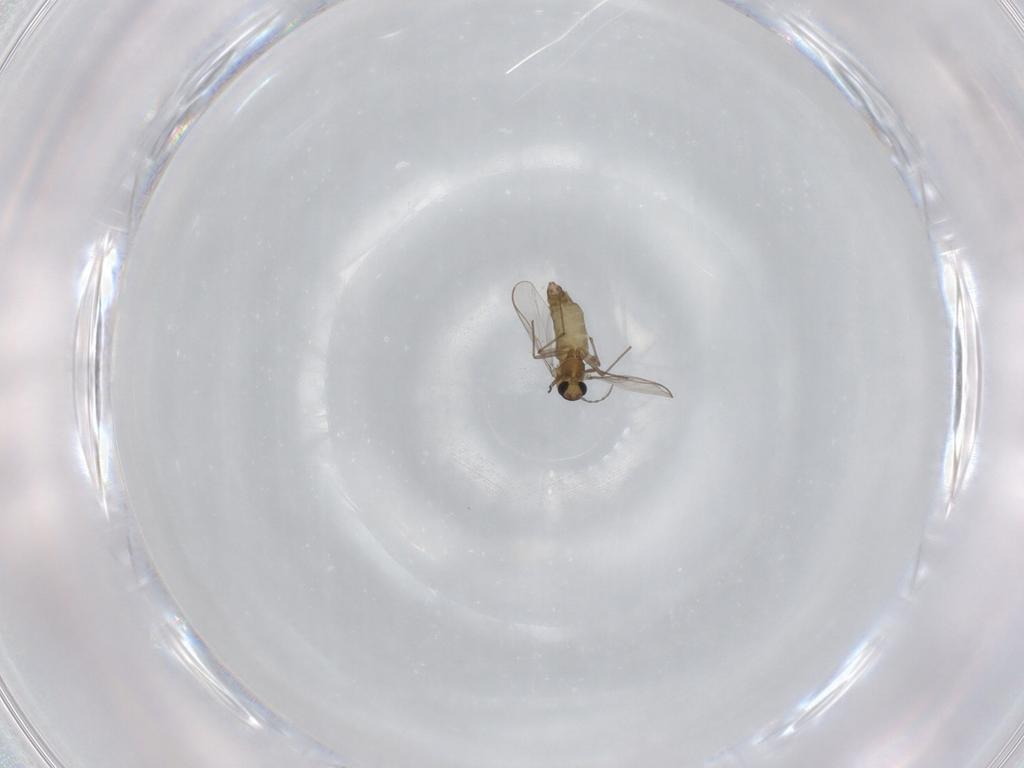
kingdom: Animalia
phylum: Arthropoda
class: Insecta
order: Diptera
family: Chironomidae
